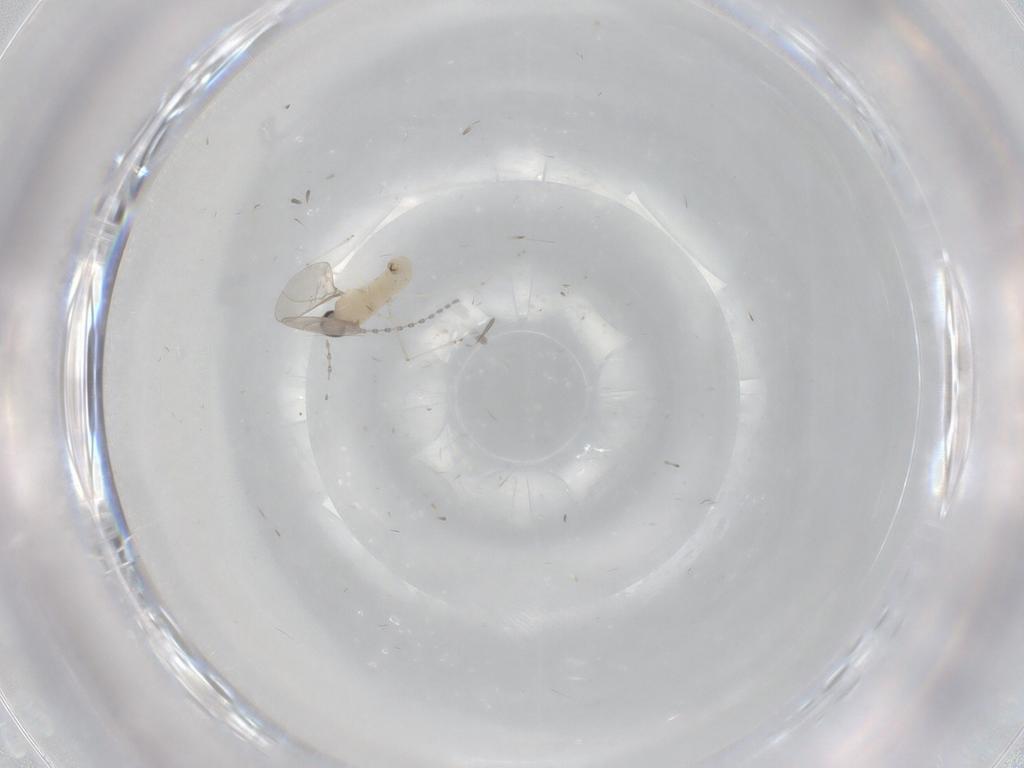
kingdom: Animalia
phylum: Arthropoda
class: Insecta
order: Diptera
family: Cecidomyiidae
